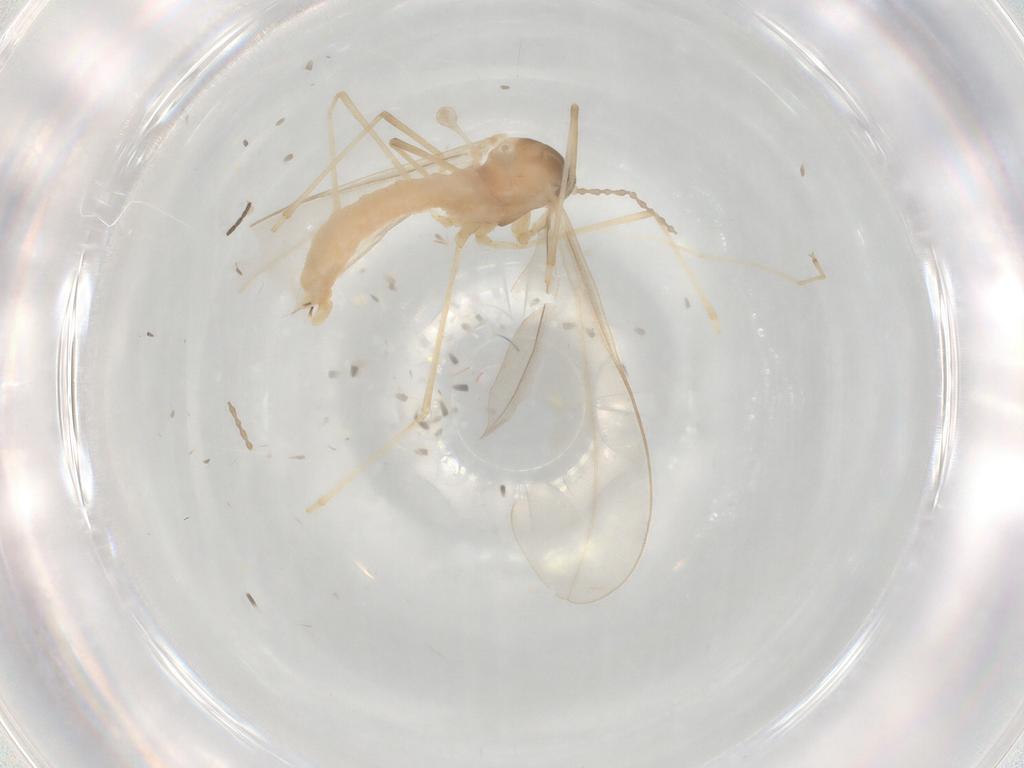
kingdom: Animalia
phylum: Arthropoda
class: Insecta
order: Diptera
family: Cecidomyiidae
